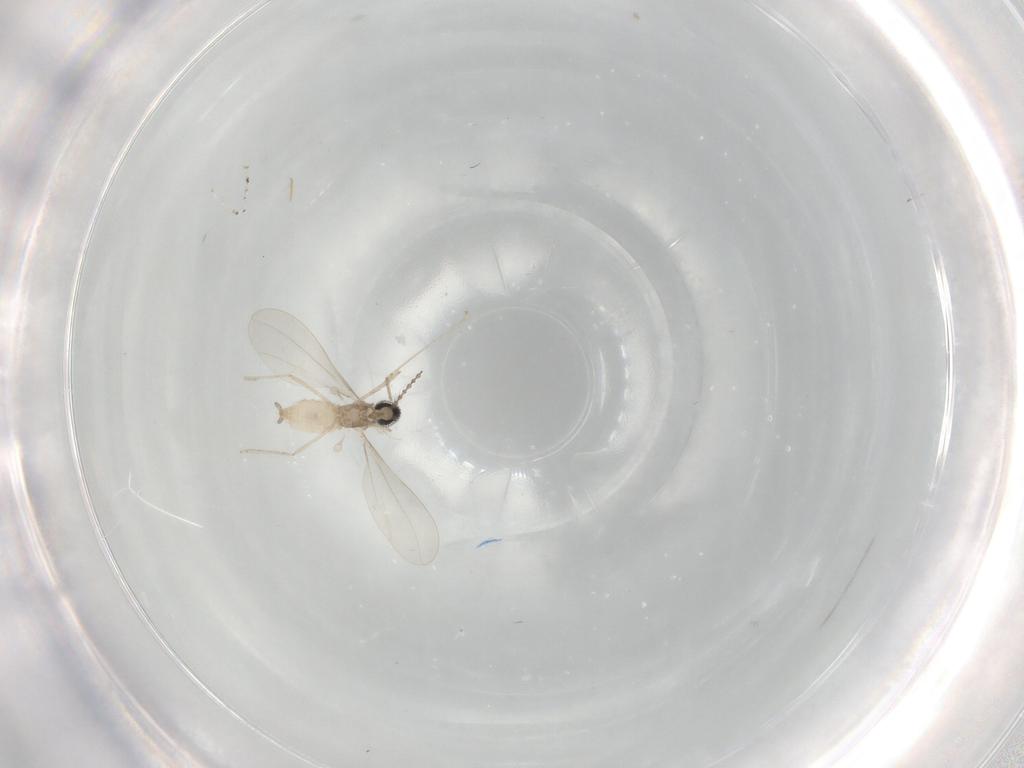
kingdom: Animalia
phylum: Arthropoda
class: Insecta
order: Diptera
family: Cecidomyiidae
